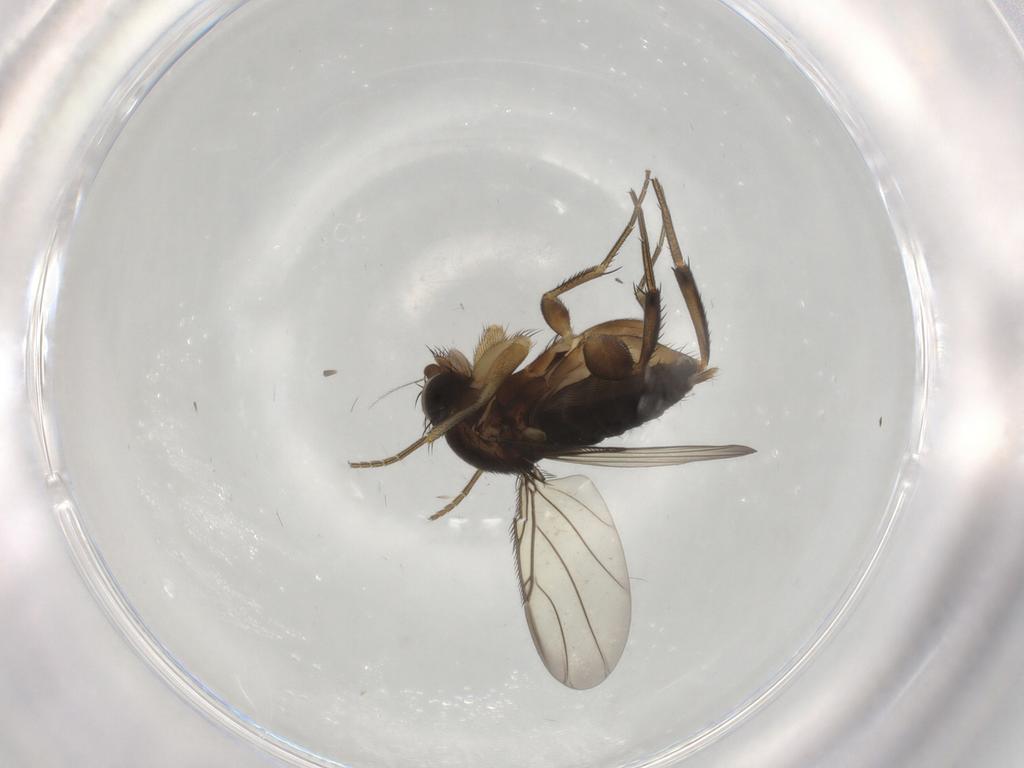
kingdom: Animalia
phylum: Arthropoda
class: Insecta
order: Diptera
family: Phoridae
